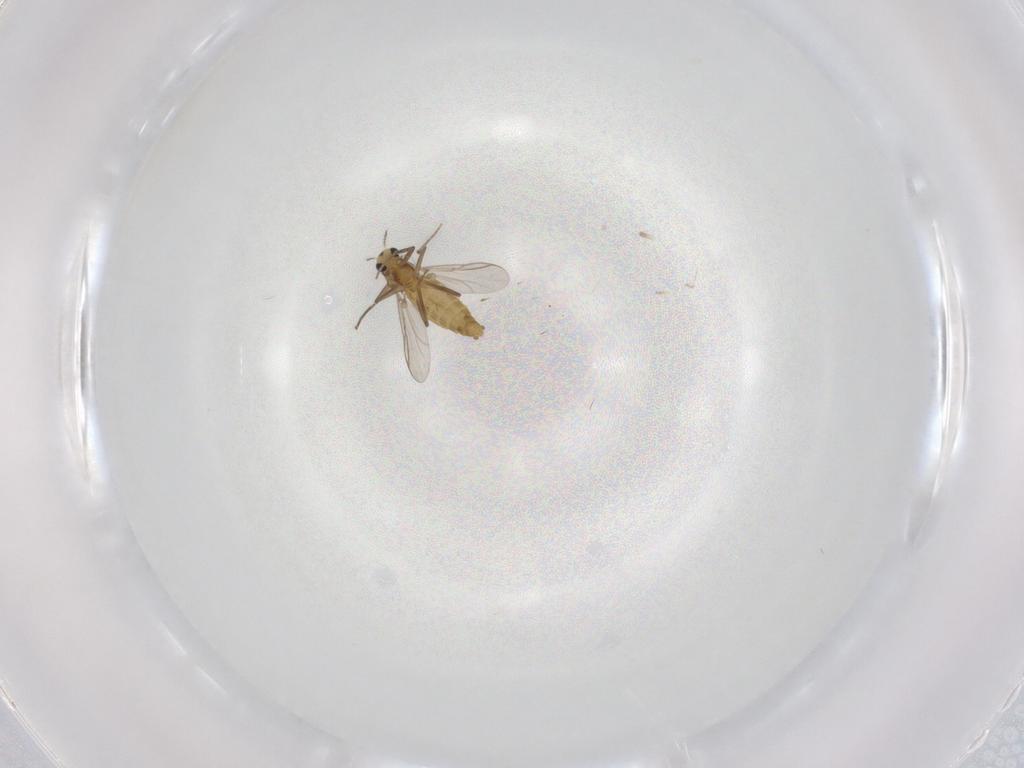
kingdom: Animalia
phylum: Arthropoda
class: Insecta
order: Diptera
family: Chironomidae
